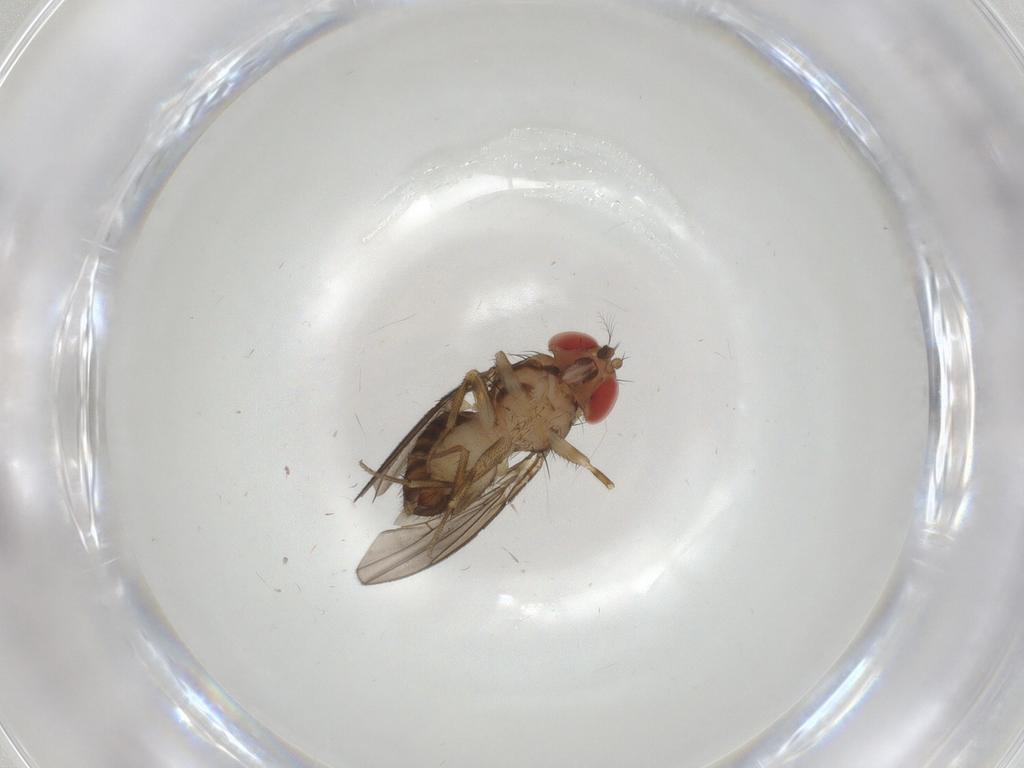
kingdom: Animalia
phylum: Arthropoda
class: Insecta
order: Diptera
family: Drosophilidae
